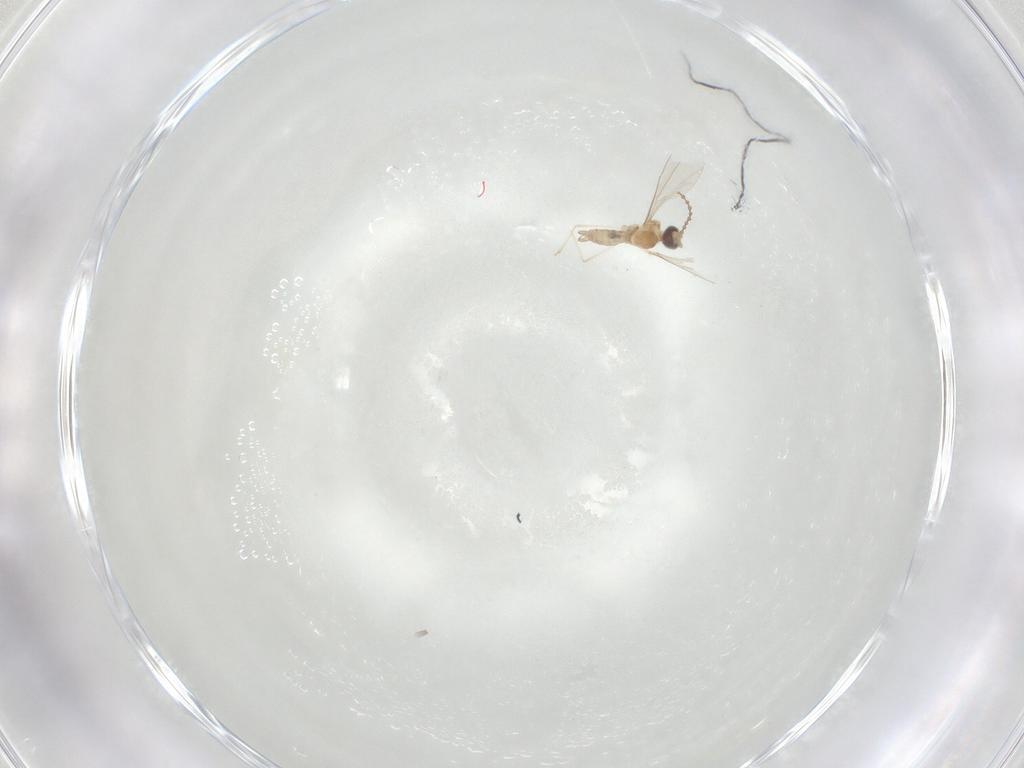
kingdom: Animalia
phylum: Arthropoda
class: Insecta
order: Diptera
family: Cecidomyiidae
